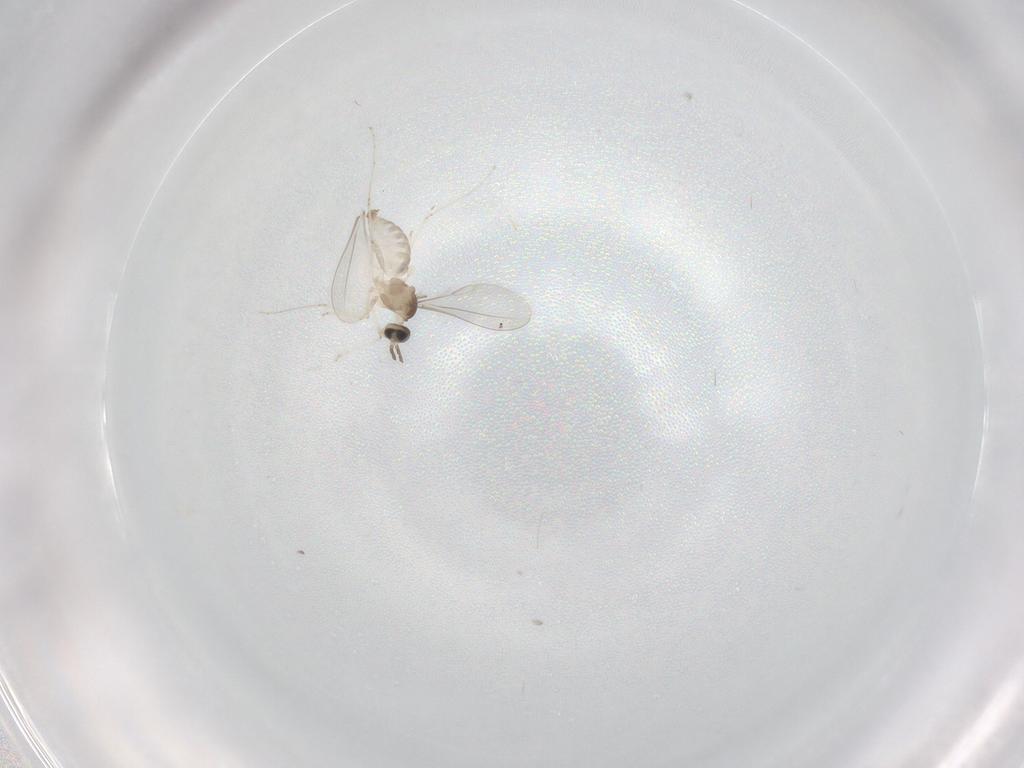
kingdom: Animalia
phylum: Arthropoda
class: Insecta
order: Diptera
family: Cecidomyiidae
